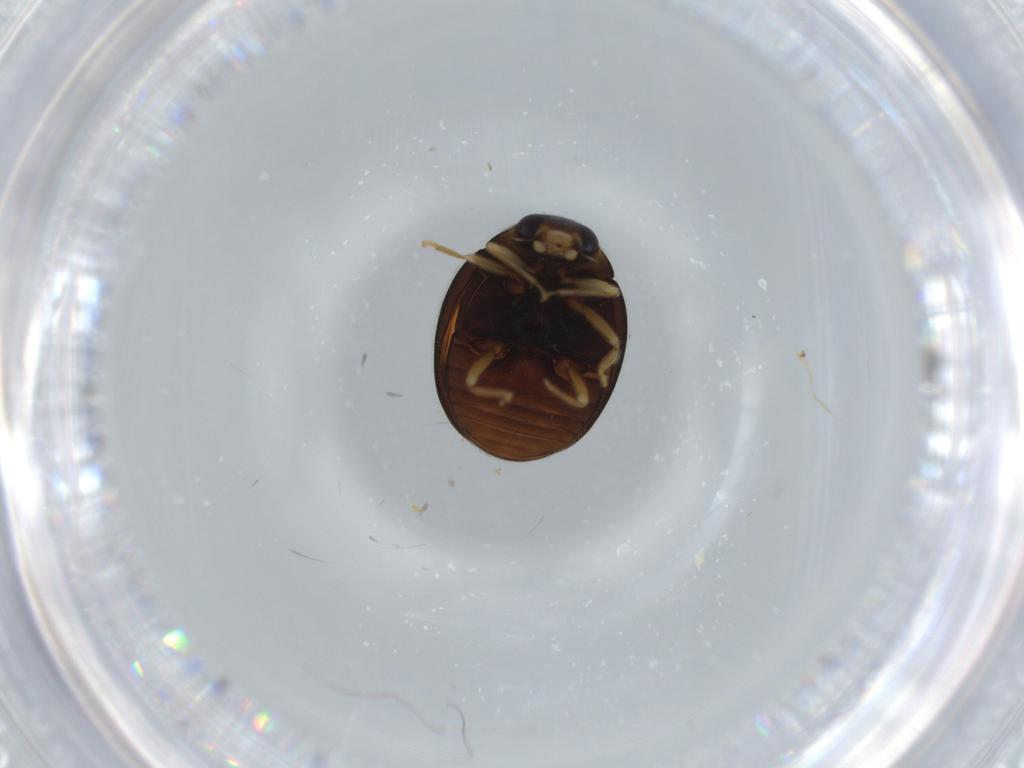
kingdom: Animalia
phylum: Arthropoda
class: Insecta
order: Coleoptera
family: Coccinellidae
